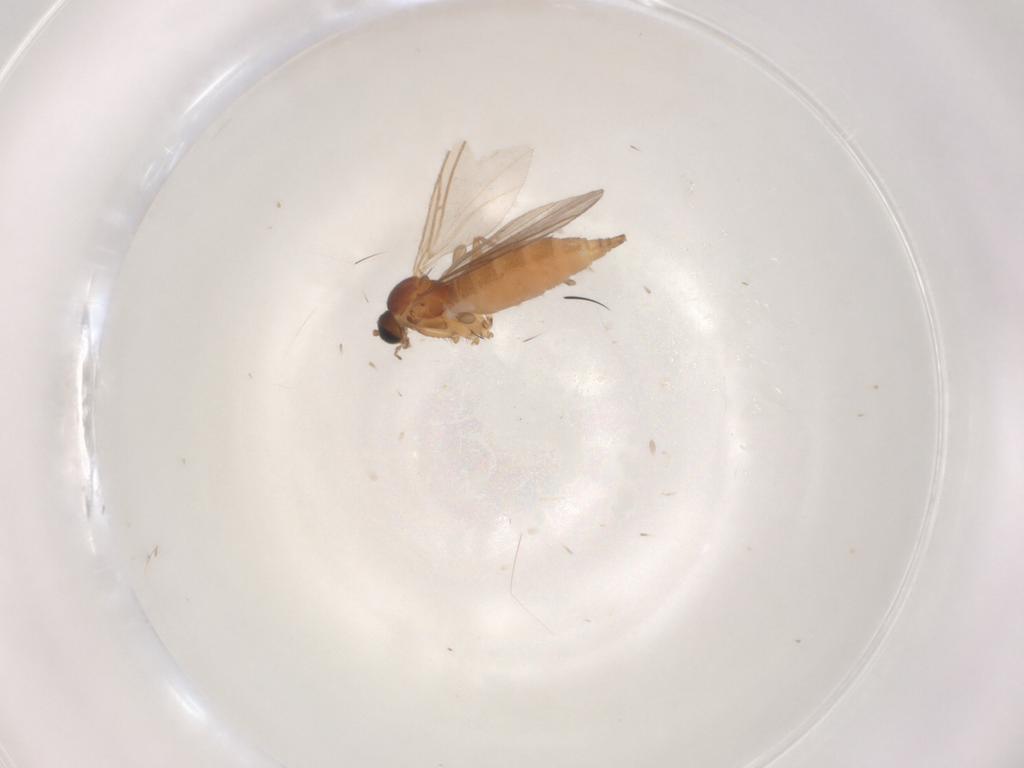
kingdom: Animalia
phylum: Arthropoda
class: Insecta
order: Diptera
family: Sciaridae
